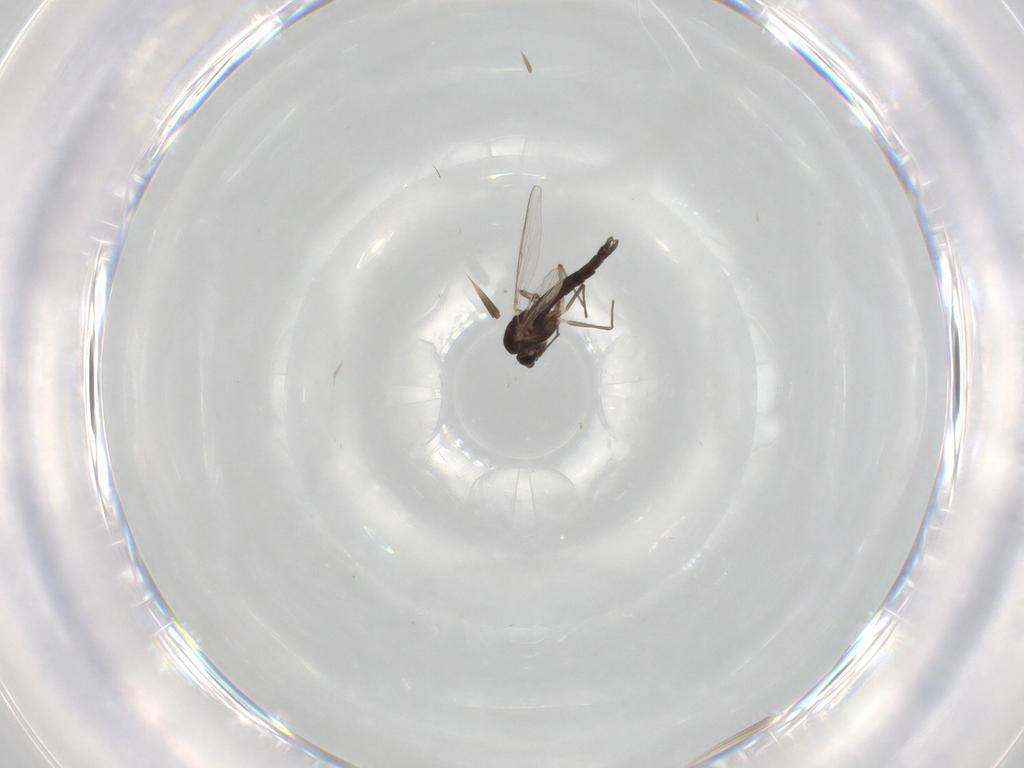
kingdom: Animalia
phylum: Arthropoda
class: Insecta
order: Diptera
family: Chironomidae
